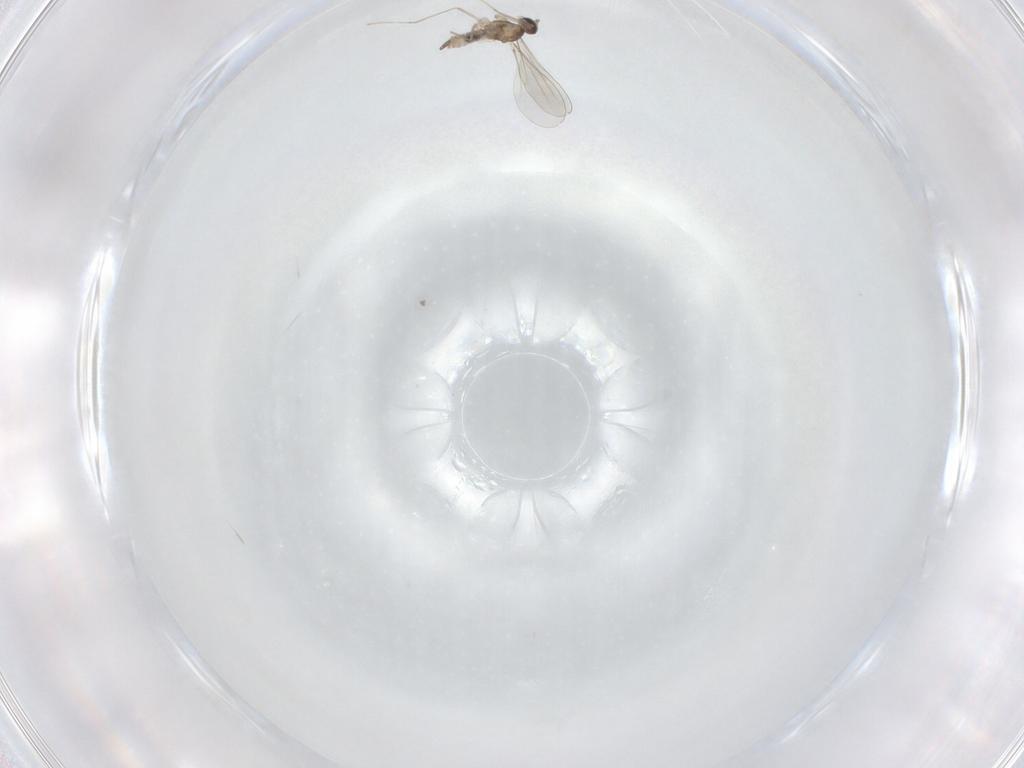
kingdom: Animalia
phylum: Arthropoda
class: Insecta
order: Diptera
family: Cecidomyiidae
